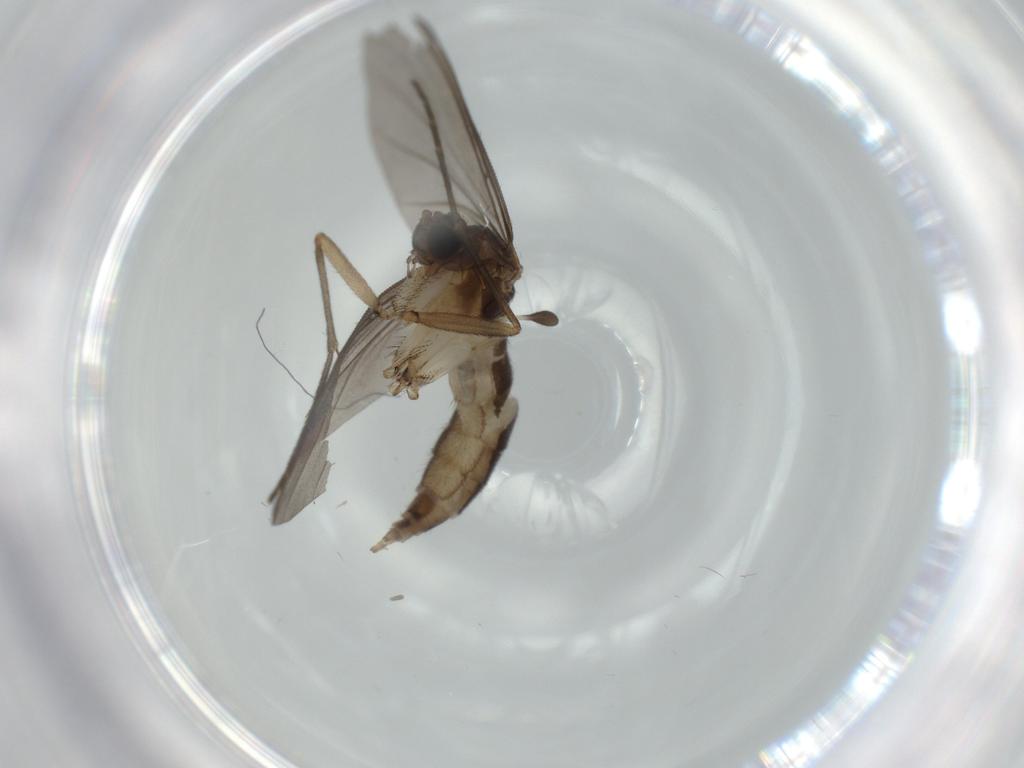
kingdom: Animalia
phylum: Arthropoda
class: Insecta
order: Diptera
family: Sciaridae
